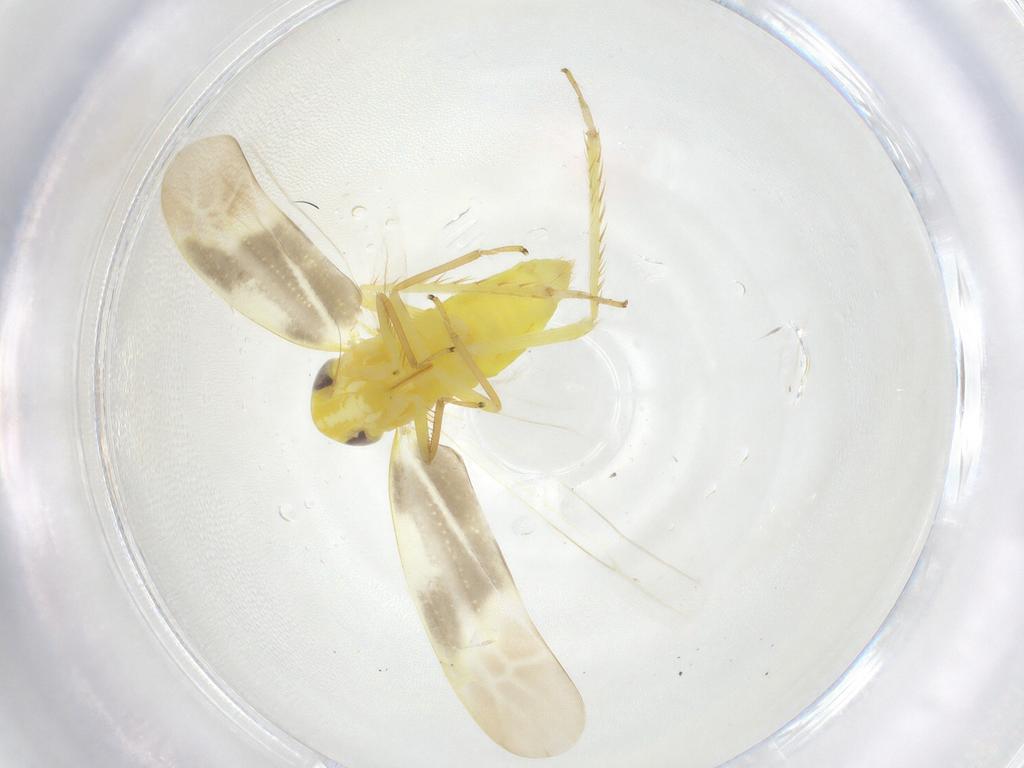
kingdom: Animalia
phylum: Arthropoda
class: Insecta
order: Hemiptera
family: Cicadellidae
